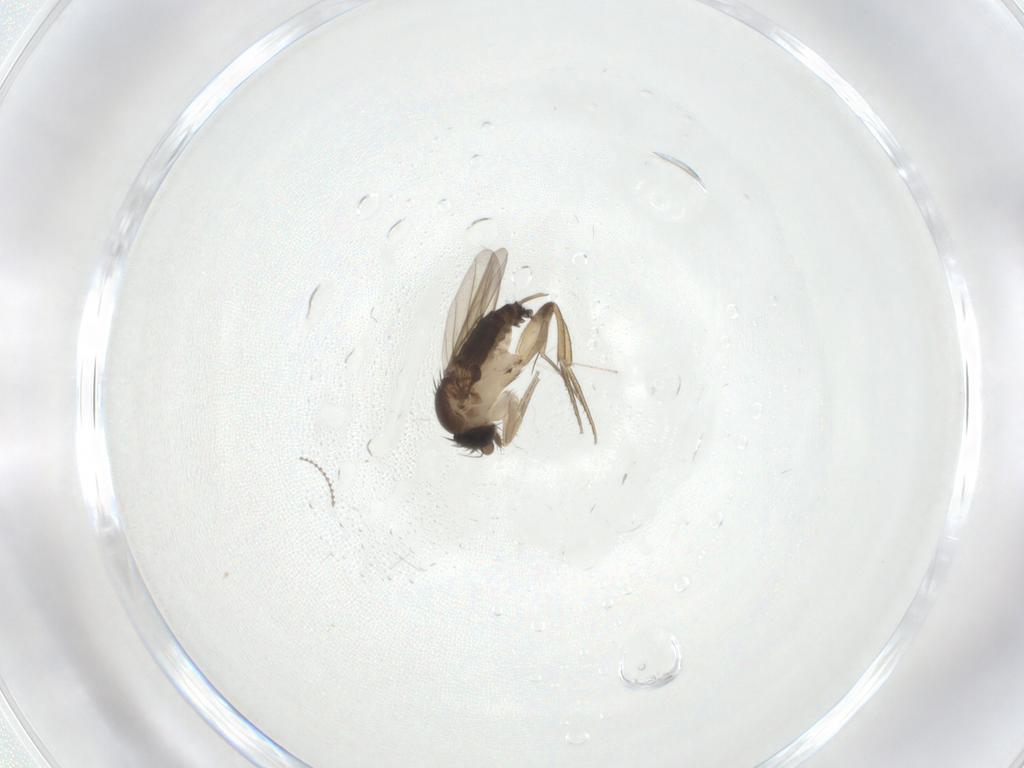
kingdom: Animalia
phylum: Arthropoda
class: Insecta
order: Diptera
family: Phoridae
